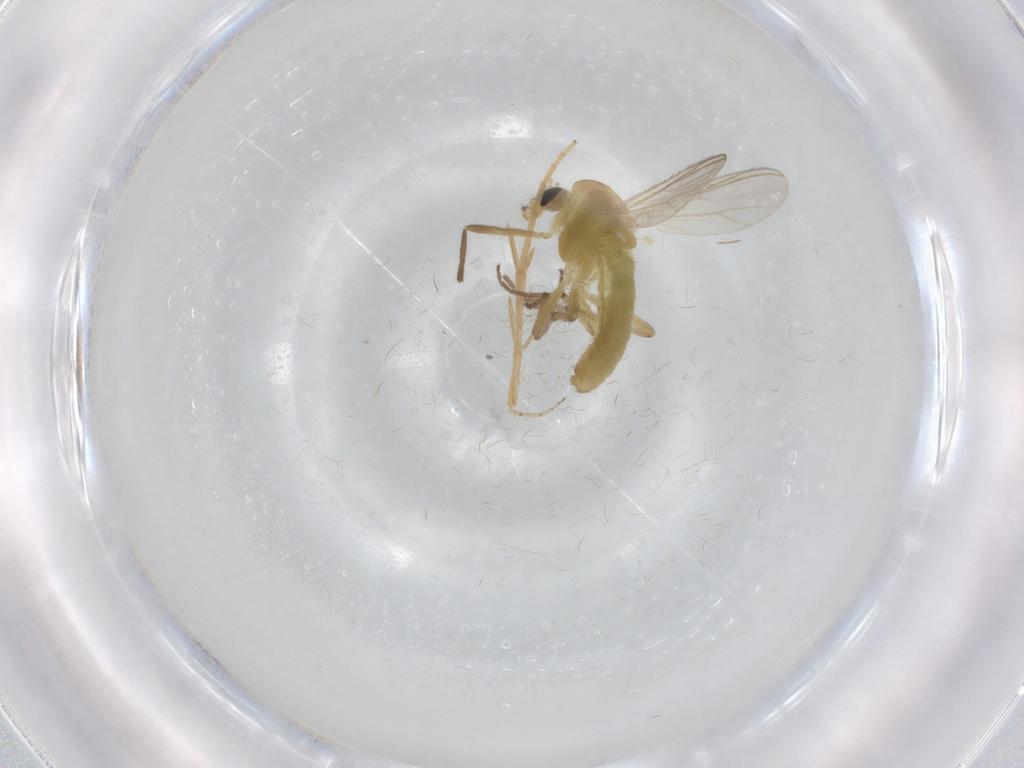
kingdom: Animalia
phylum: Arthropoda
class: Insecta
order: Diptera
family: Chironomidae
